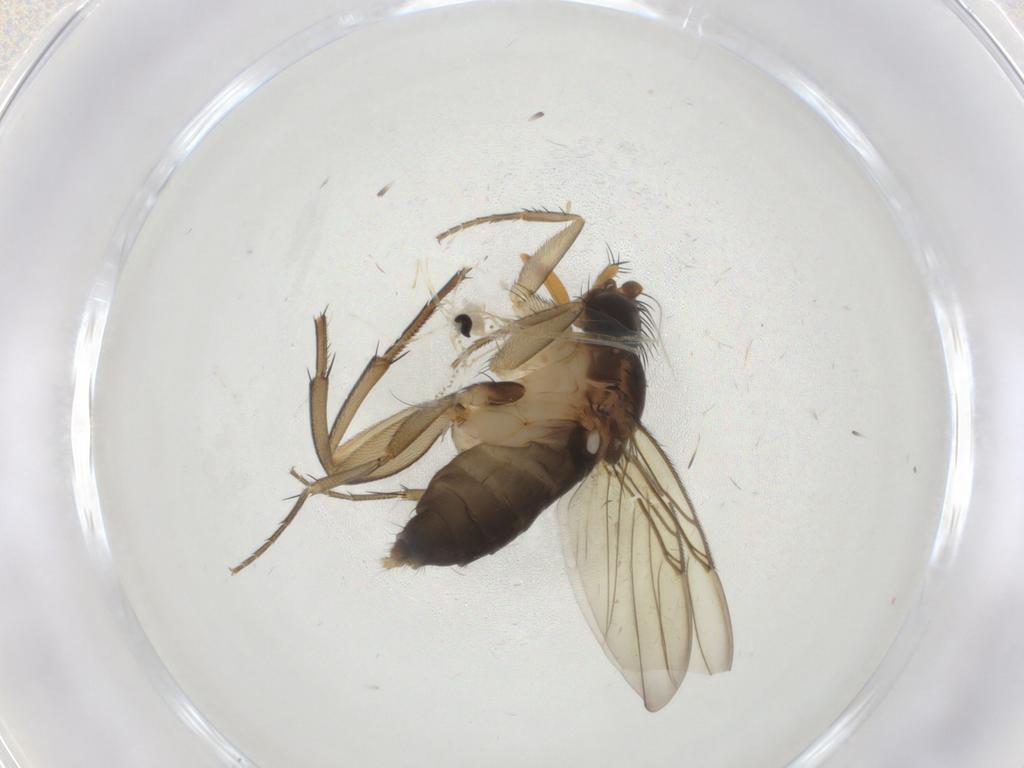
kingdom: Animalia
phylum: Arthropoda
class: Insecta
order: Diptera
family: Cecidomyiidae
